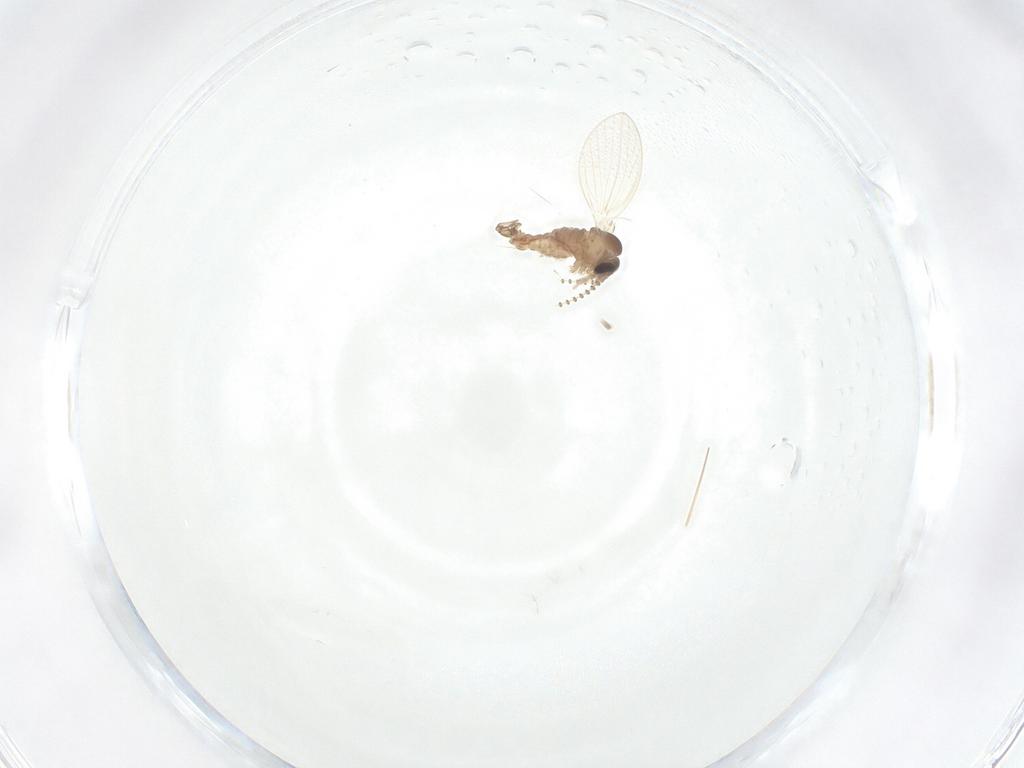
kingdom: Animalia
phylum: Arthropoda
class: Insecta
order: Diptera
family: Psychodidae
